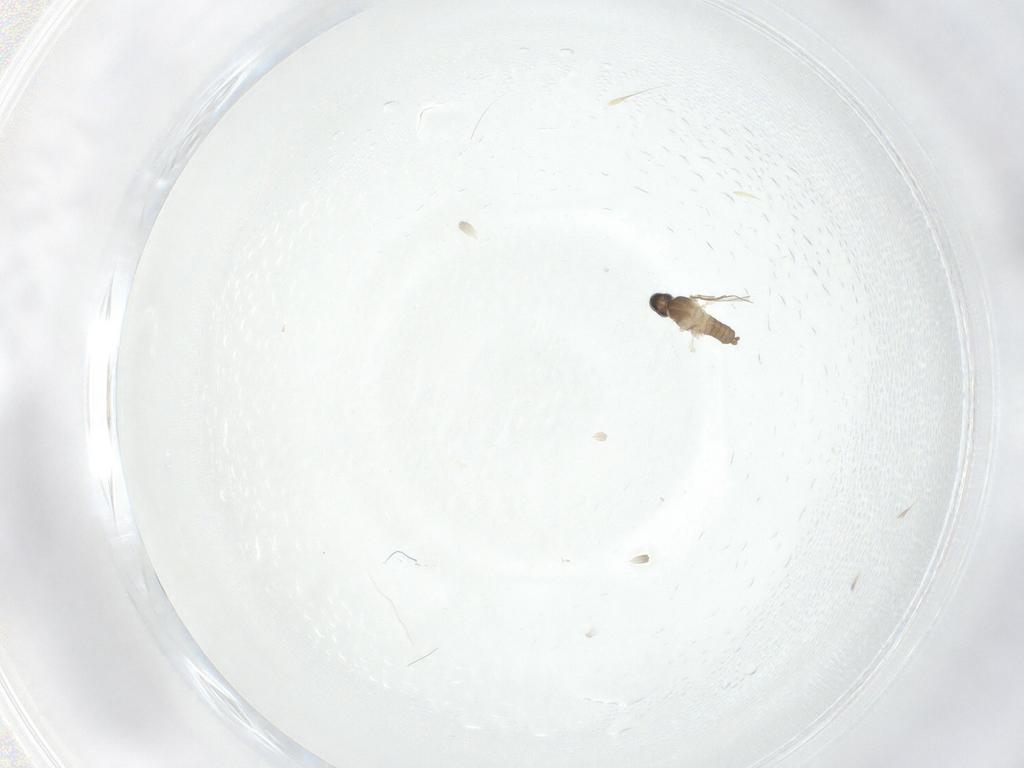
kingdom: Animalia
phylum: Arthropoda
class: Insecta
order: Diptera
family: Cecidomyiidae
